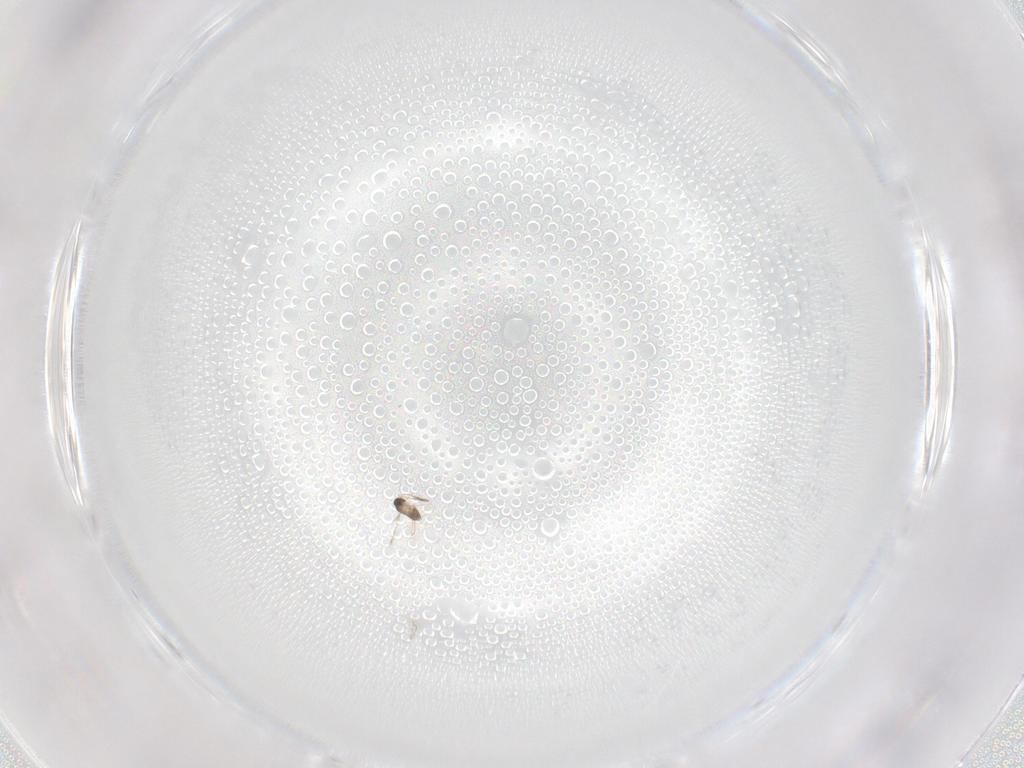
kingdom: Animalia
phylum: Arthropoda
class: Insecta
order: Hymenoptera
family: Mymaridae
